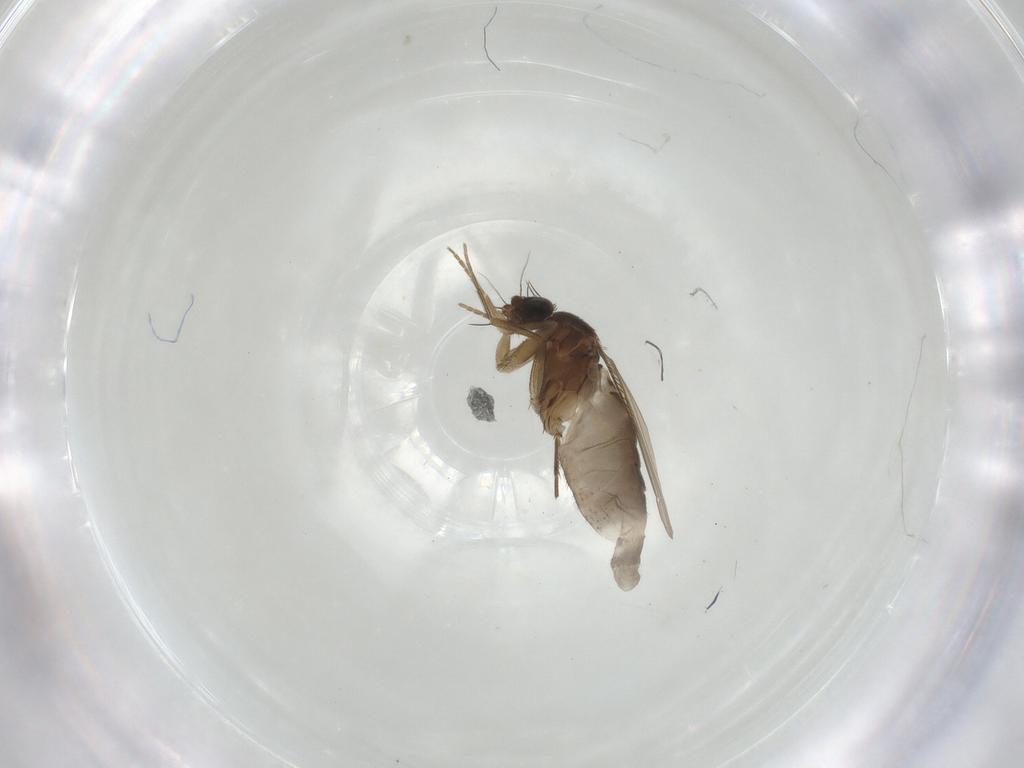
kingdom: Animalia
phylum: Arthropoda
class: Insecta
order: Diptera
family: Phoridae
